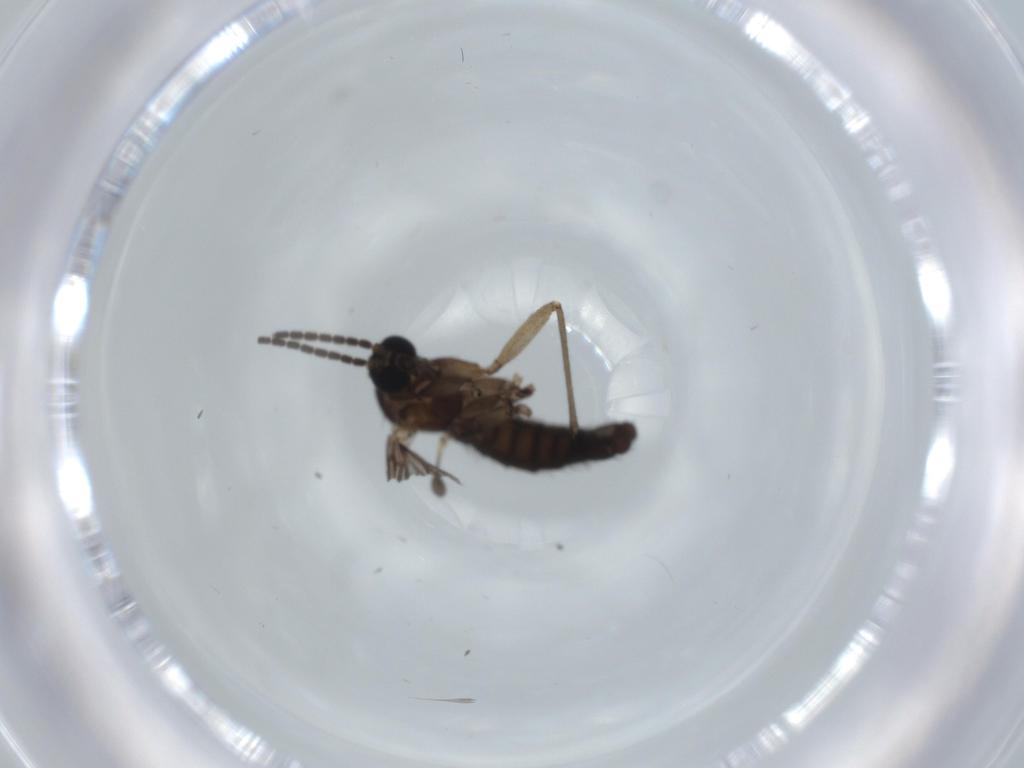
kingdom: Animalia
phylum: Arthropoda
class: Insecta
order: Diptera
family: Sciaridae
